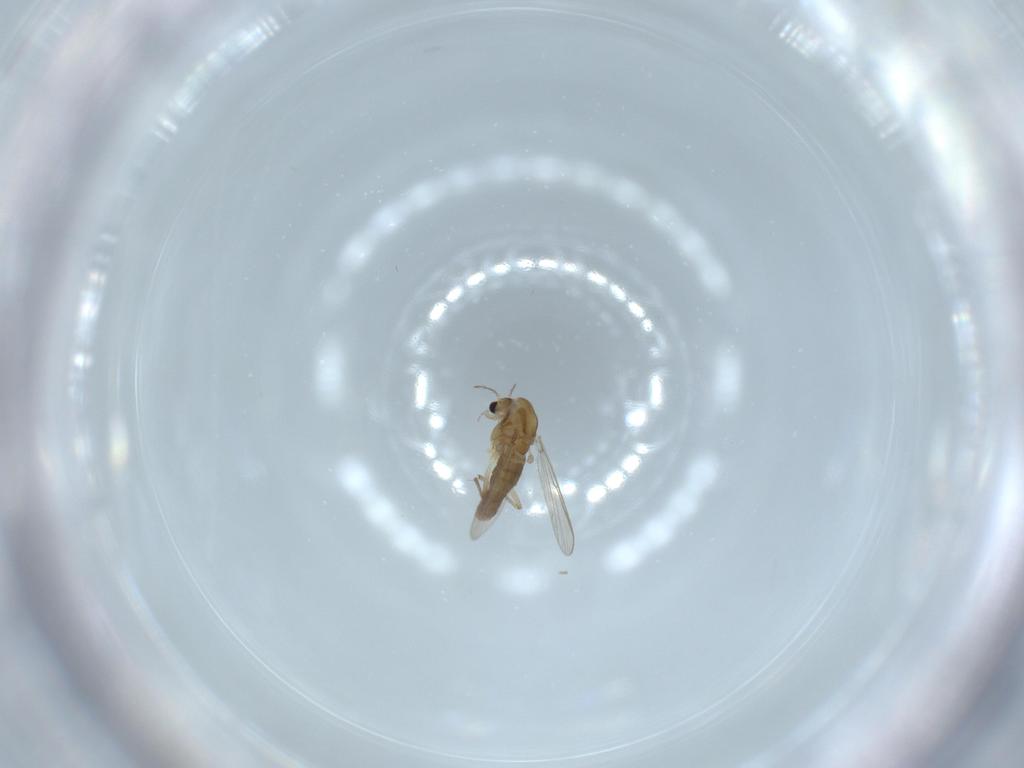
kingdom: Animalia
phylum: Arthropoda
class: Insecta
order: Diptera
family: Chironomidae
